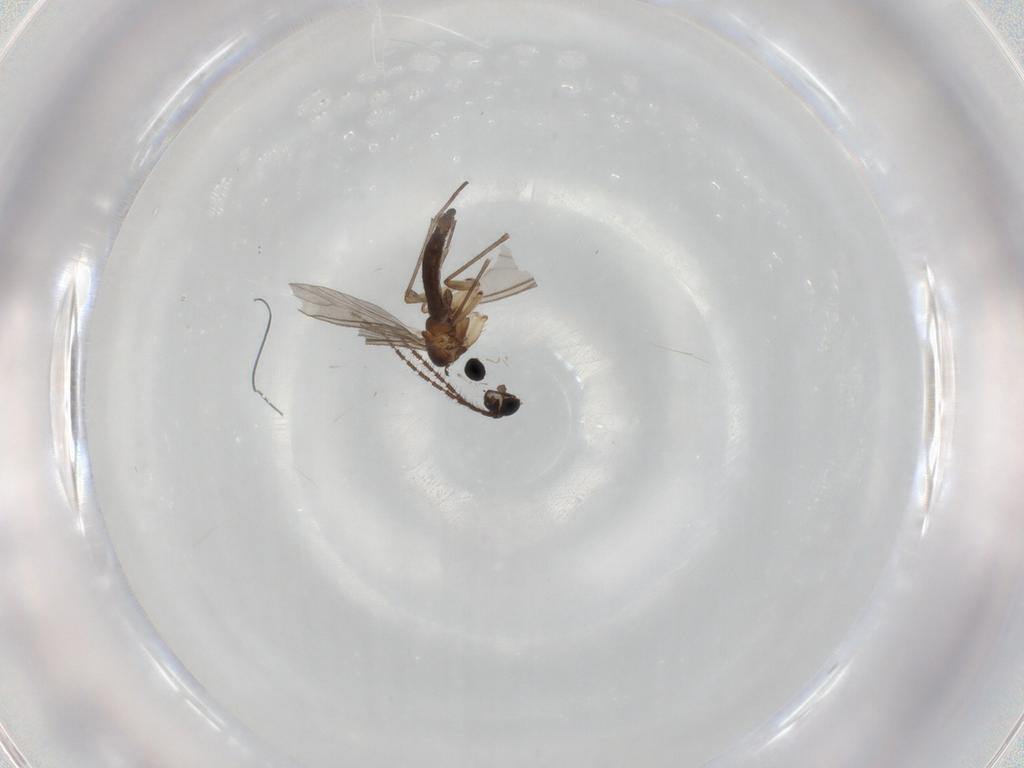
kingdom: Animalia
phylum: Arthropoda
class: Insecta
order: Diptera
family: Sciaridae
